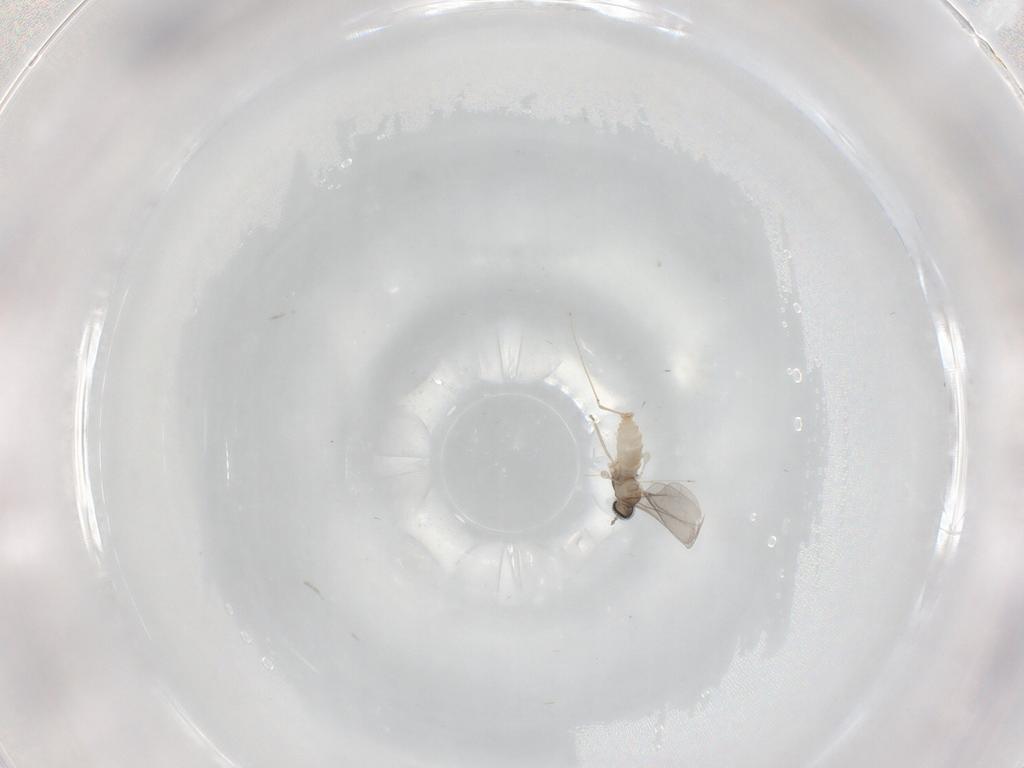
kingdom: Animalia
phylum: Arthropoda
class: Insecta
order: Diptera
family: Cecidomyiidae
